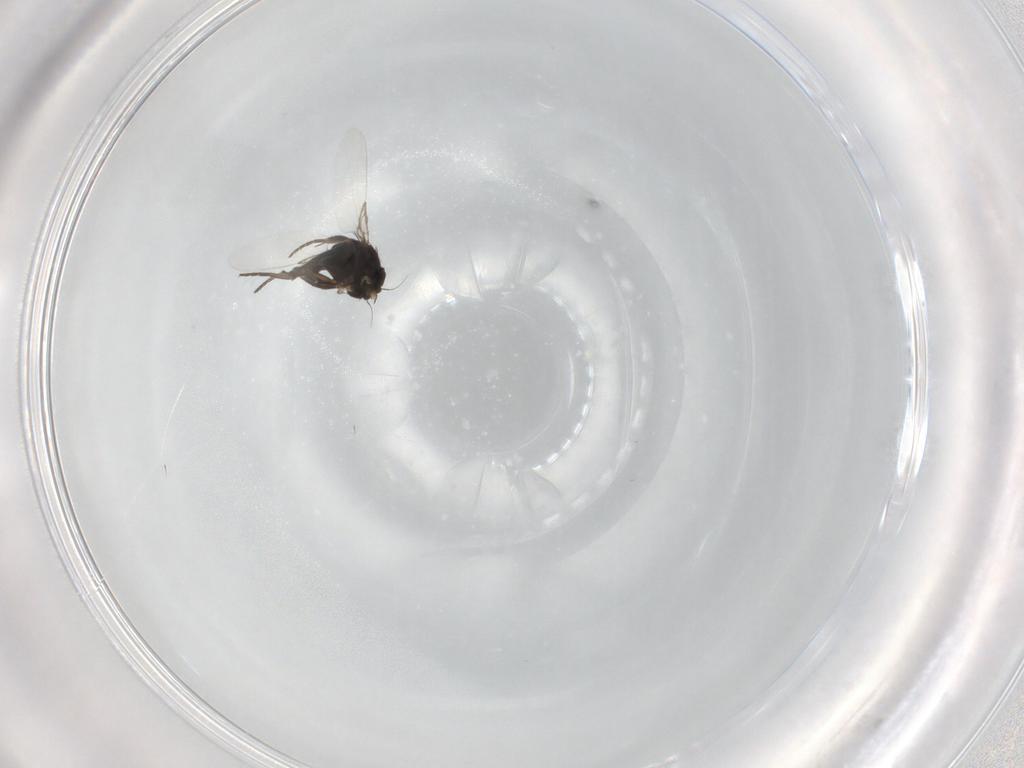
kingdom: Animalia
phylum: Arthropoda
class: Insecta
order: Diptera
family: Phoridae
